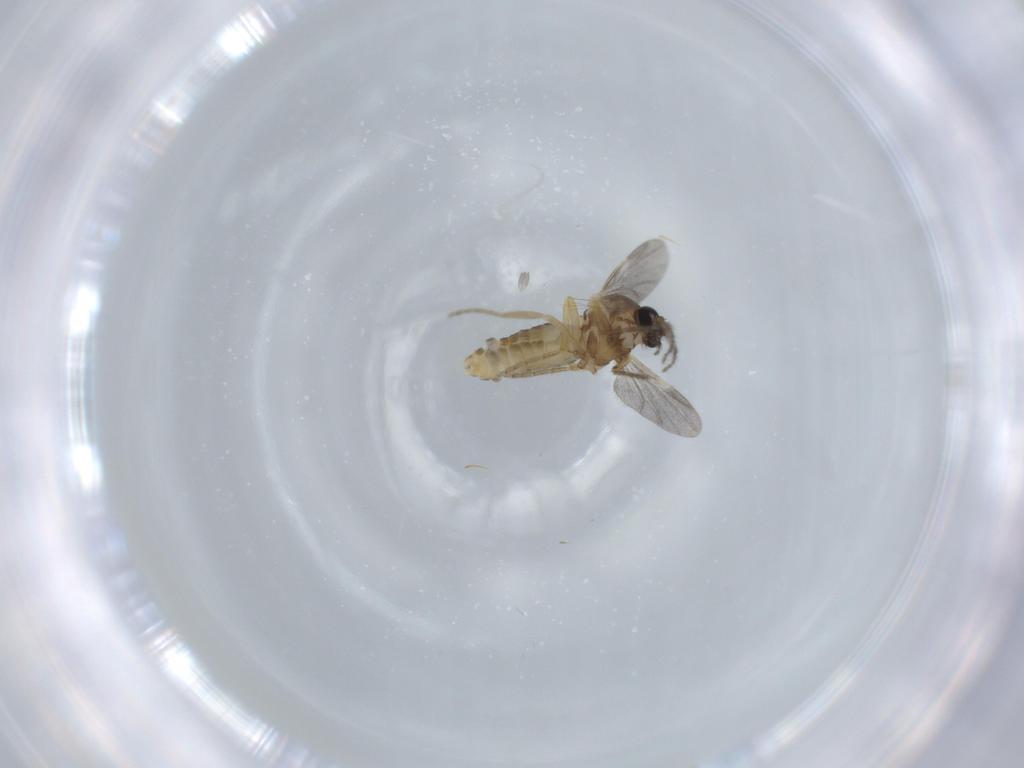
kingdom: Animalia
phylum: Arthropoda
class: Insecta
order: Diptera
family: Ceratopogonidae
